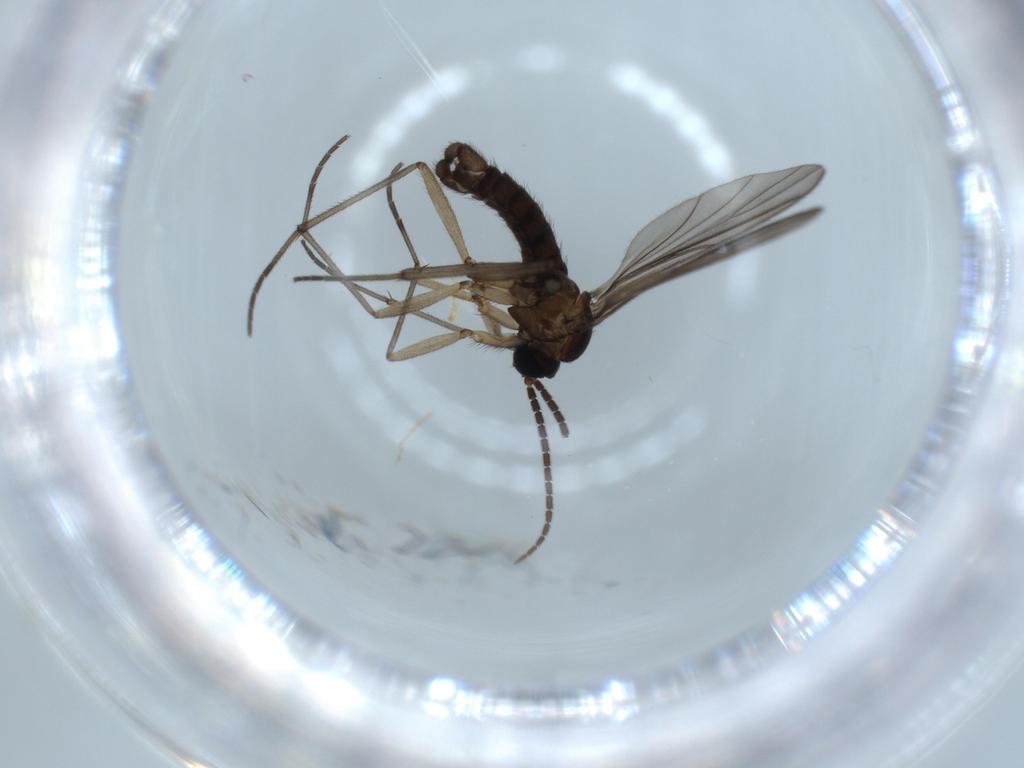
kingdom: Animalia
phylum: Arthropoda
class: Insecta
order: Diptera
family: Sciaridae
